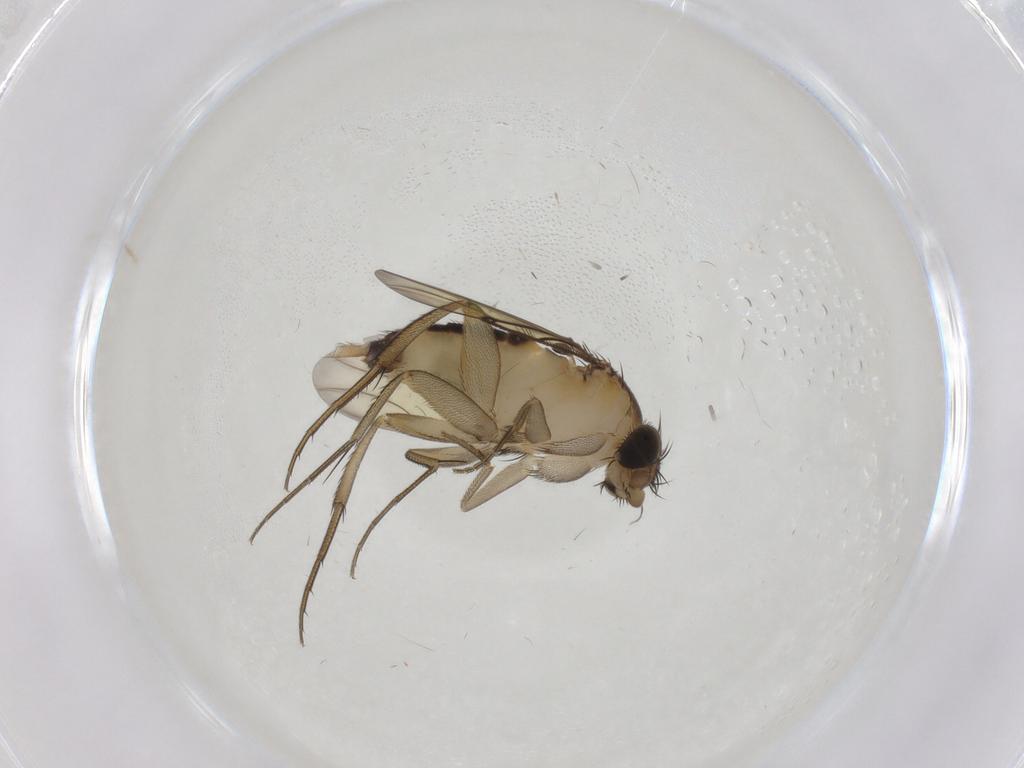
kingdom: Animalia
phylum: Arthropoda
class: Insecta
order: Diptera
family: Phoridae
